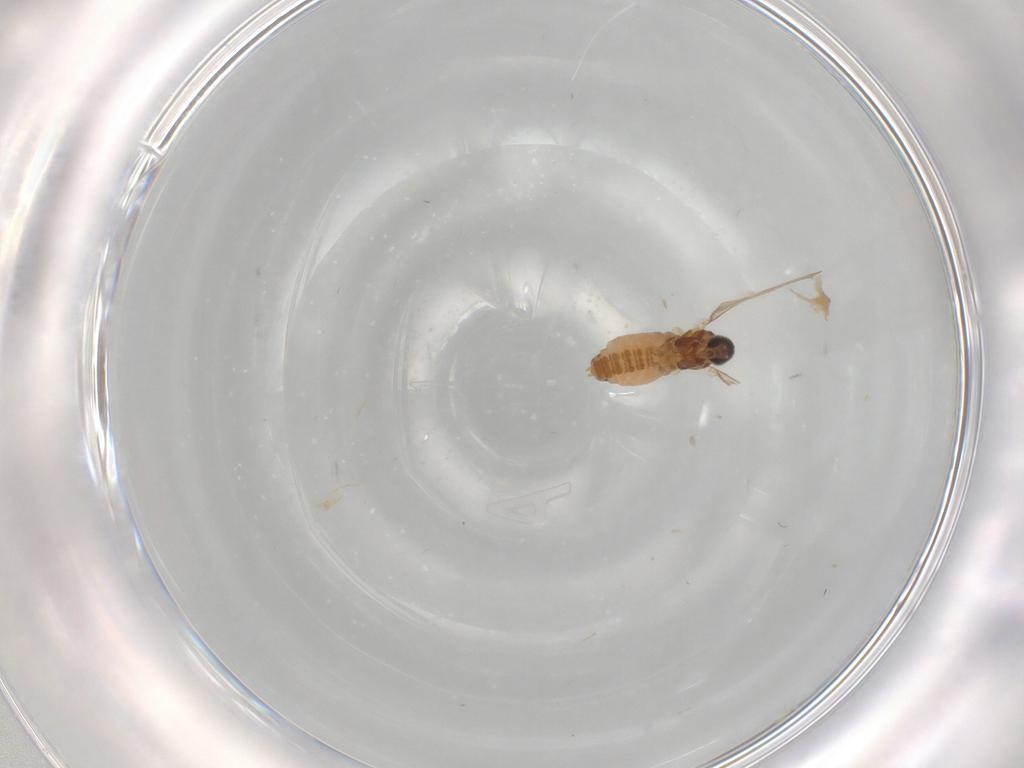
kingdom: Animalia
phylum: Arthropoda
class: Insecta
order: Diptera
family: Cecidomyiidae
